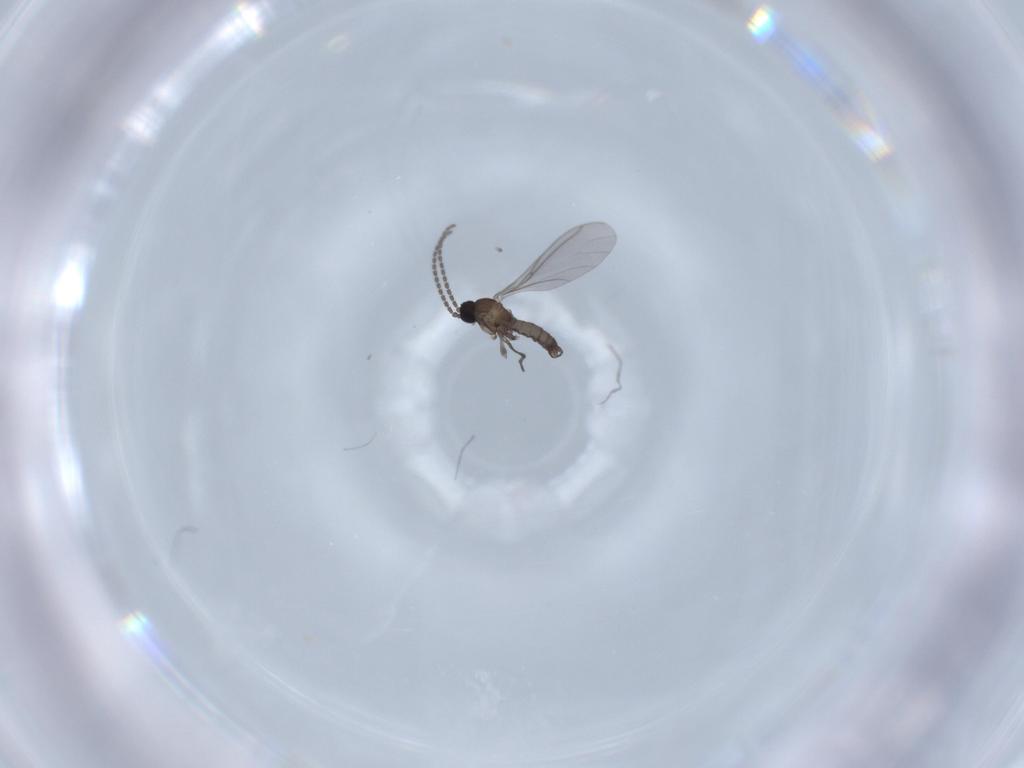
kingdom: Animalia
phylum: Arthropoda
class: Insecta
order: Diptera
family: Sciaridae
